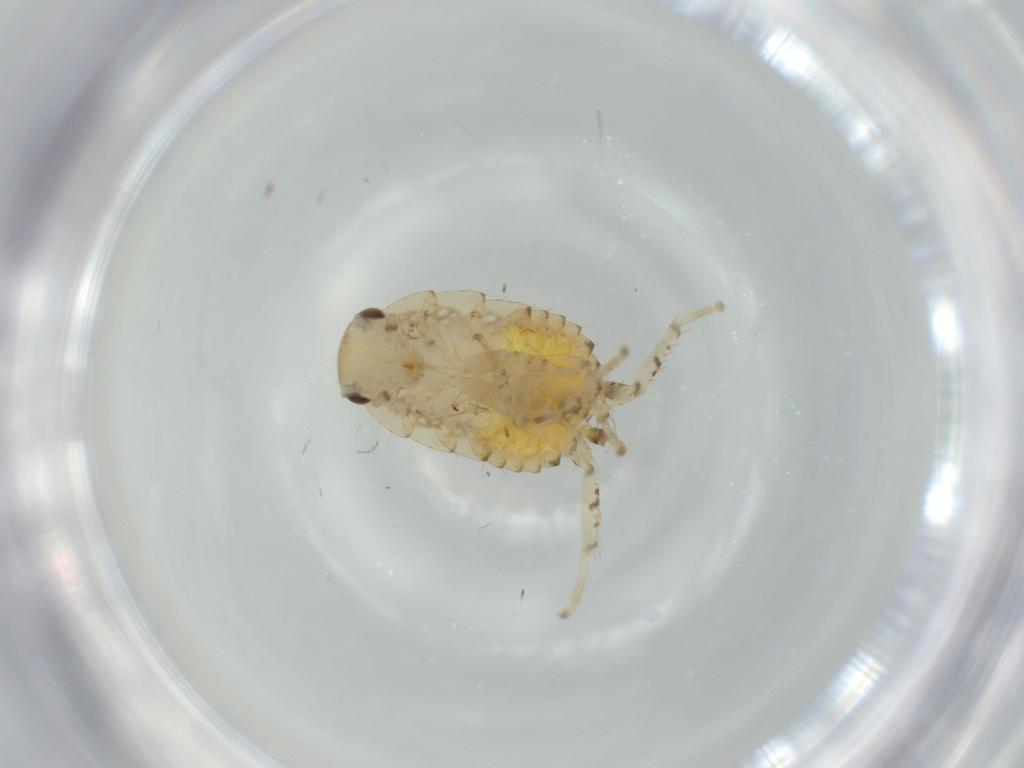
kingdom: Animalia
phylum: Arthropoda
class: Insecta
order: Blattodea
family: Ectobiidae
